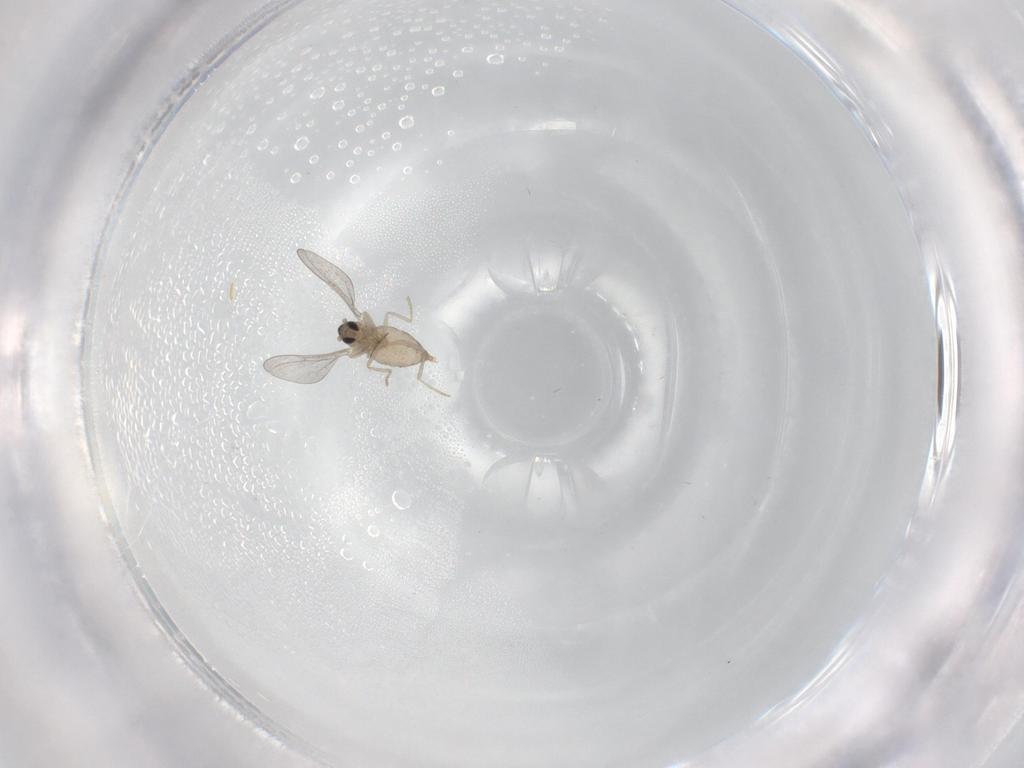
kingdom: Animalia
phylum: Arthropoda
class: Insecta
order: Diptera
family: Cecidomyiidae
